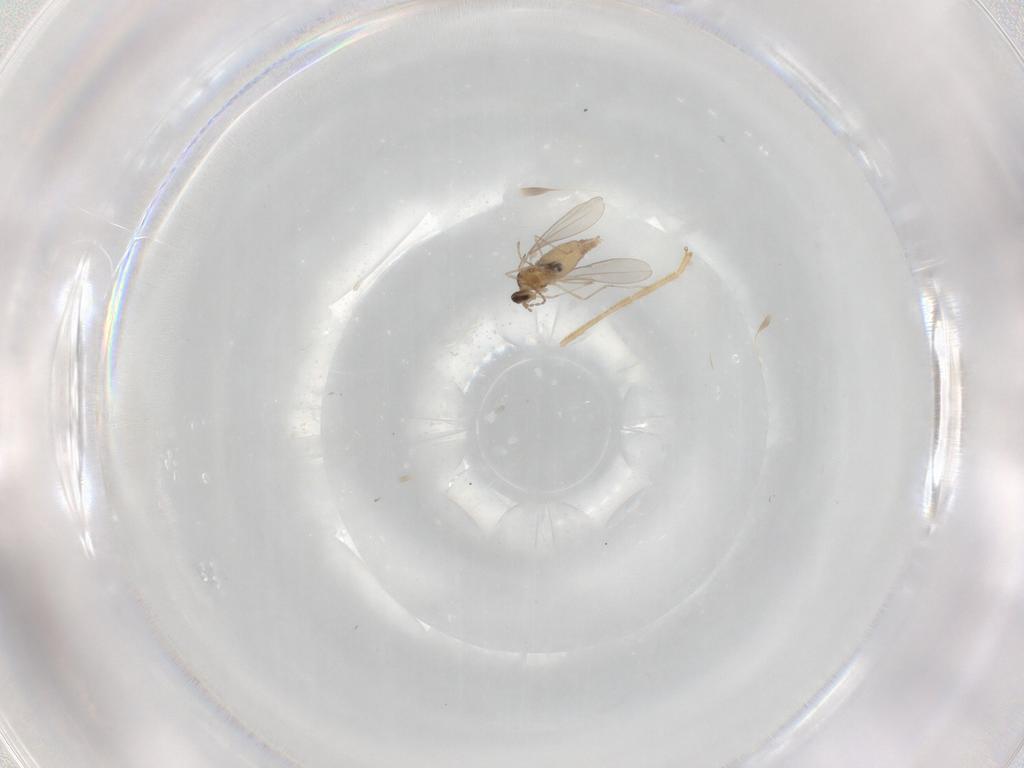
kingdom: Animalia
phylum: Arthropoda
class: Insecta
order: Diptera
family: Cecidomyiidae
